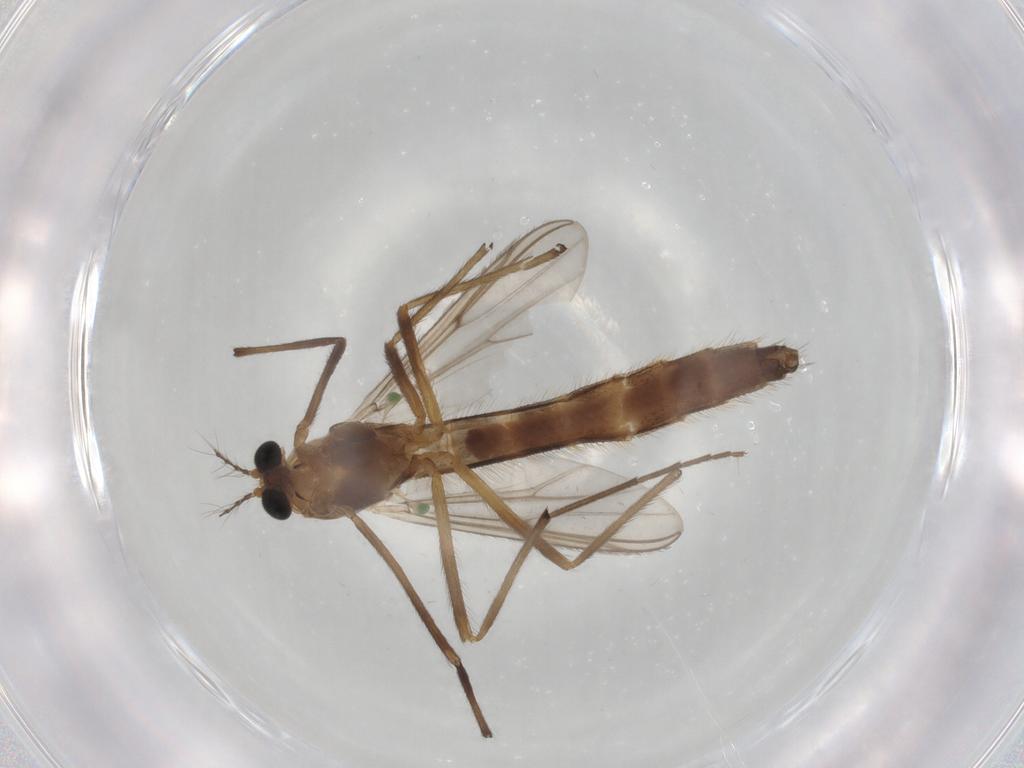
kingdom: Animalia
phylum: Arthropoda
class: Insecta
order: Diptera
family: Chironomidae
